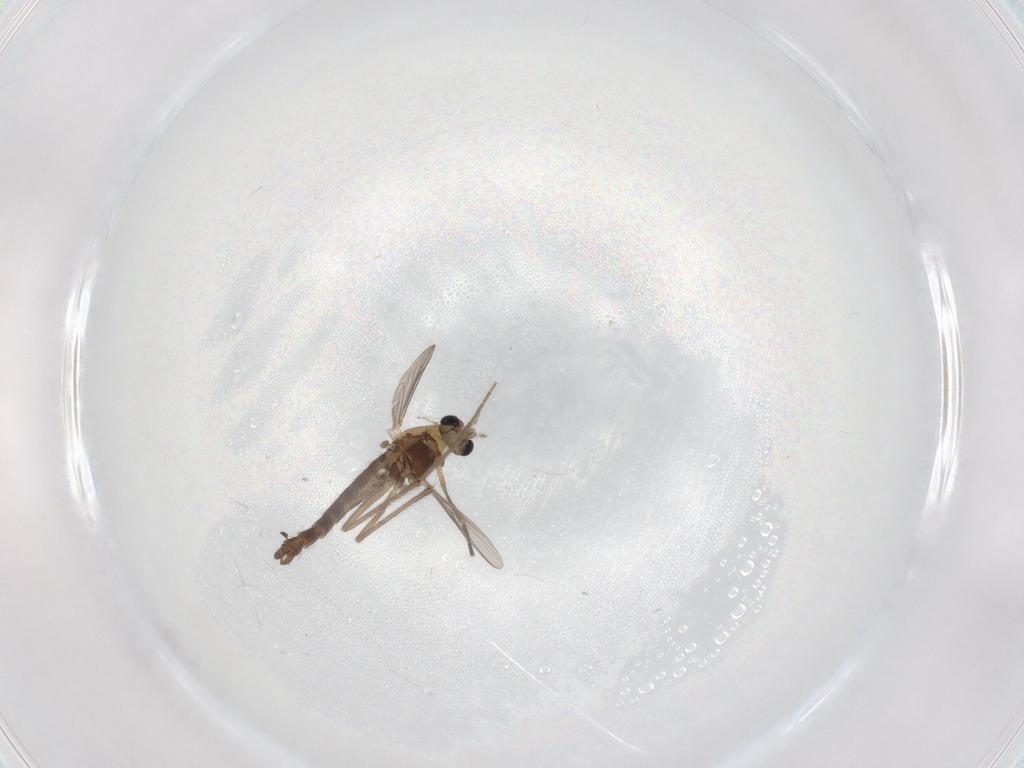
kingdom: Animalia
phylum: Arthropoda
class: Insecta
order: Diptera
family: Chironomidae
